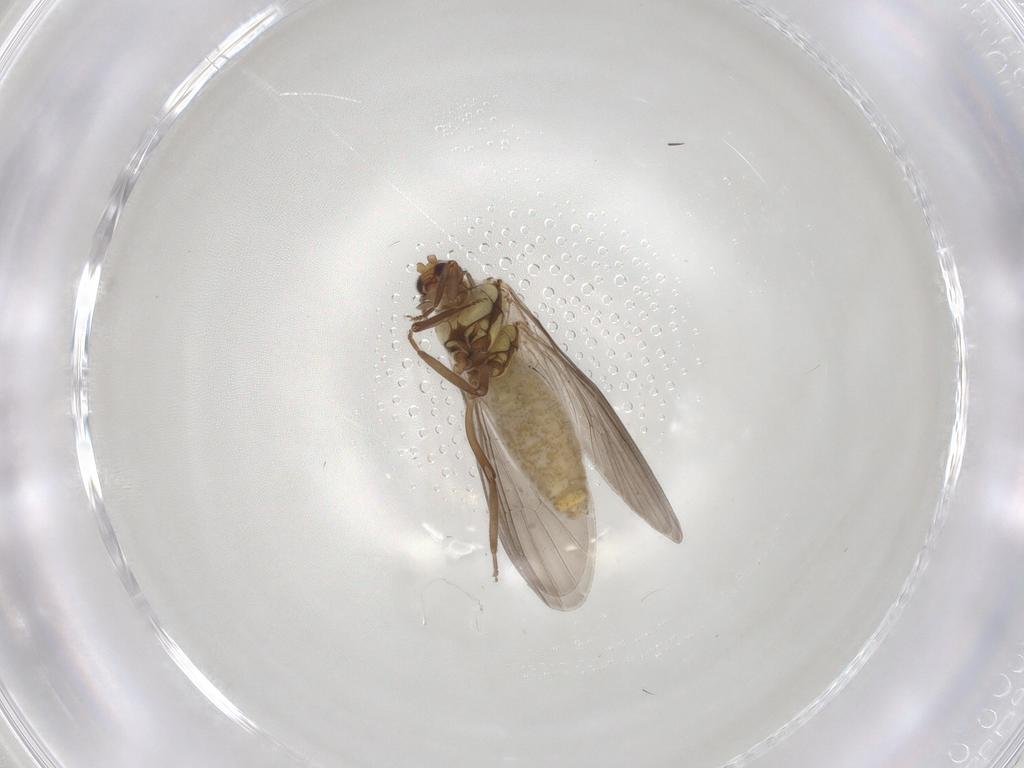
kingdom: Animalia
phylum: Arthropoda
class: Insecta
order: Neuroptera
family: Coniopterygidae
